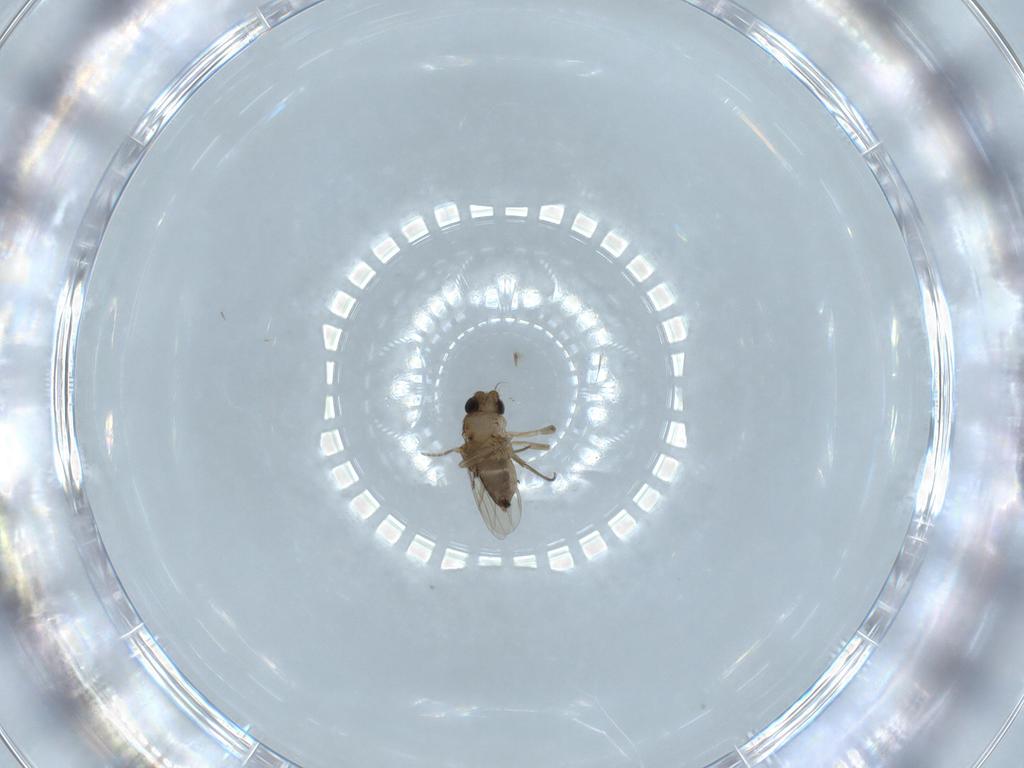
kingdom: Animalia
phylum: Arthropoda
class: Insecta
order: Diptera
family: Phoridae
